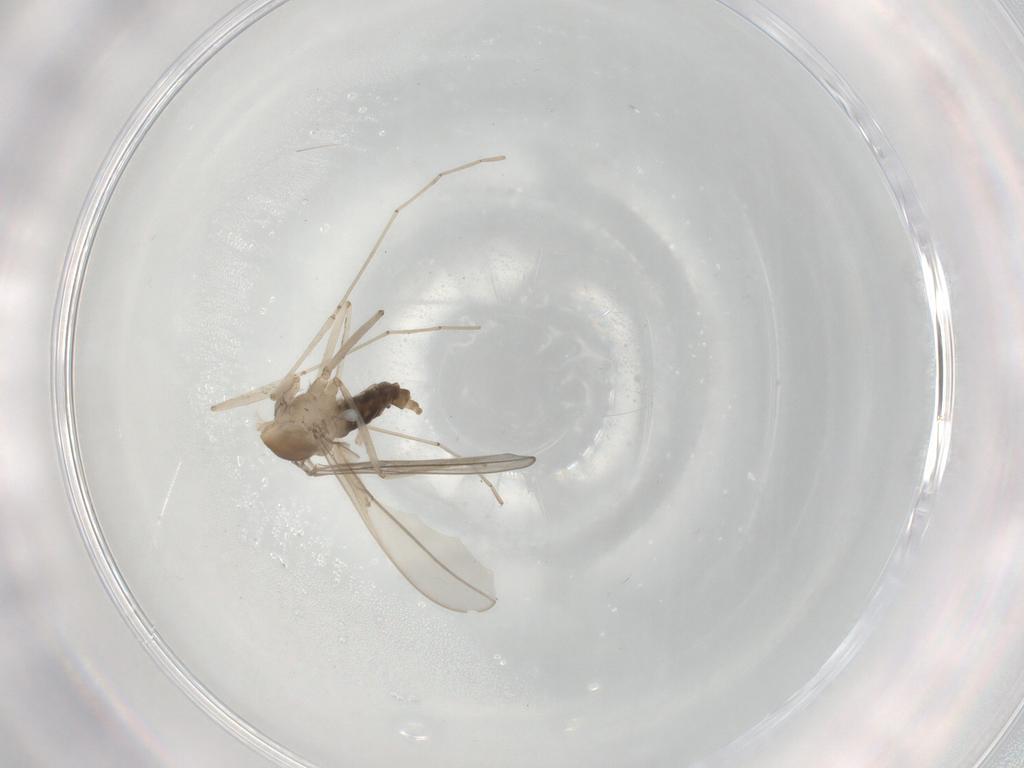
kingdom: Animalia
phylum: Arthropoda
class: Insecta
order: Diptera
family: Cecidomyiidae
